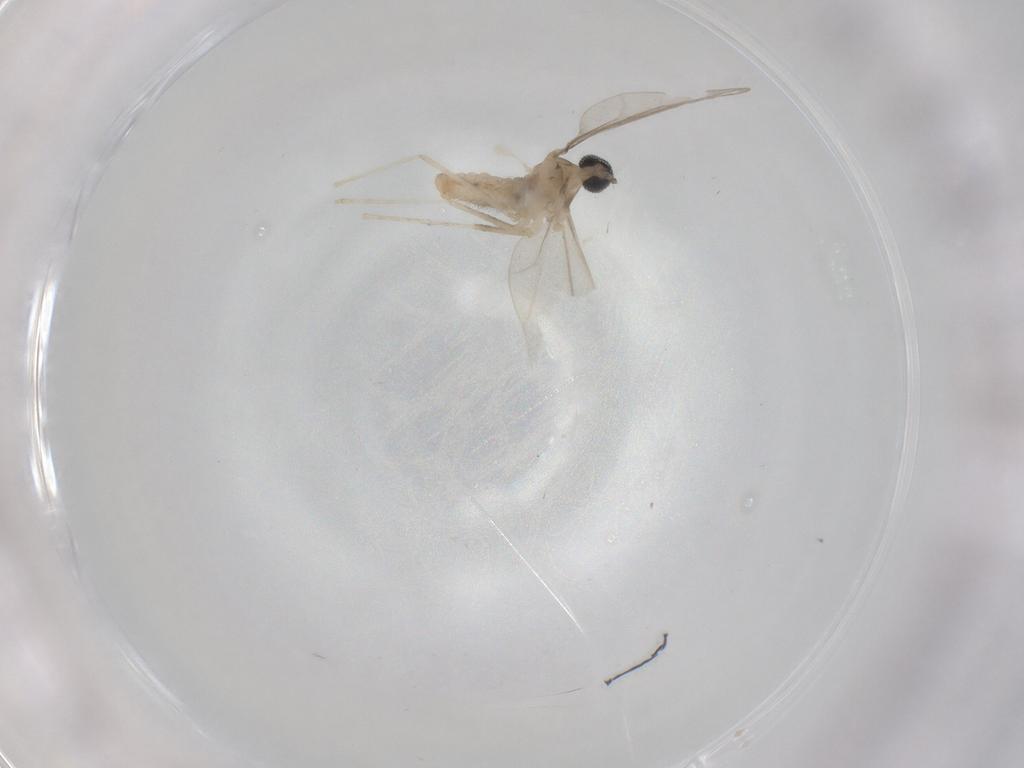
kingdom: Animalia
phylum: Arthropoda
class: Insecta
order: Diptera
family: Cecidomyiidae
